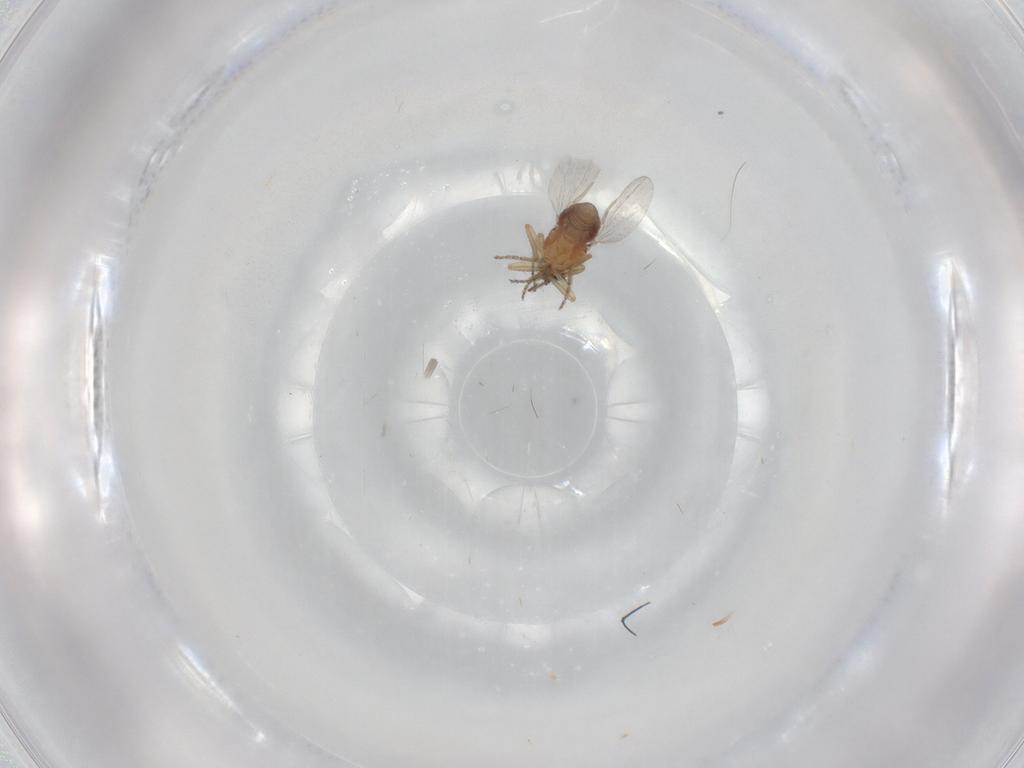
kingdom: Animalia
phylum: Arthropoda
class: Insecta
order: Diptera
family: Ceratopogonidae
